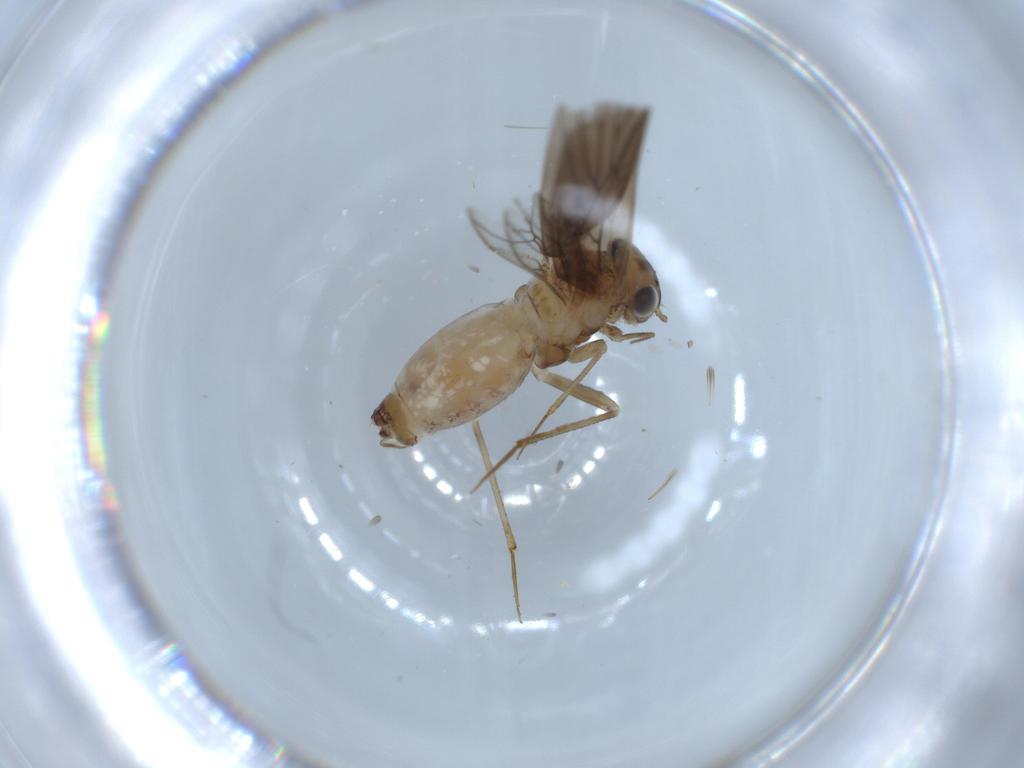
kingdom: Animalia
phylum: Arthropoda
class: Insecta
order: Psocodea
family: Lepidopsocidae
